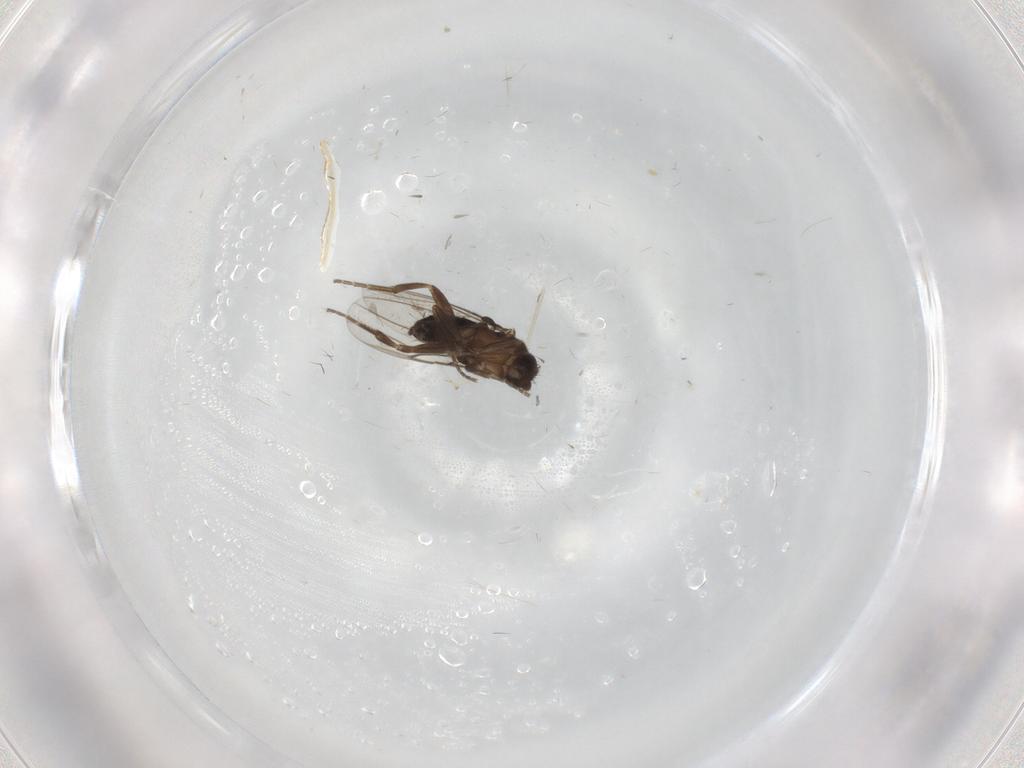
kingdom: Animalia
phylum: Arthropoda
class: Insecta
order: Diptera
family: Cecidomyiidae
